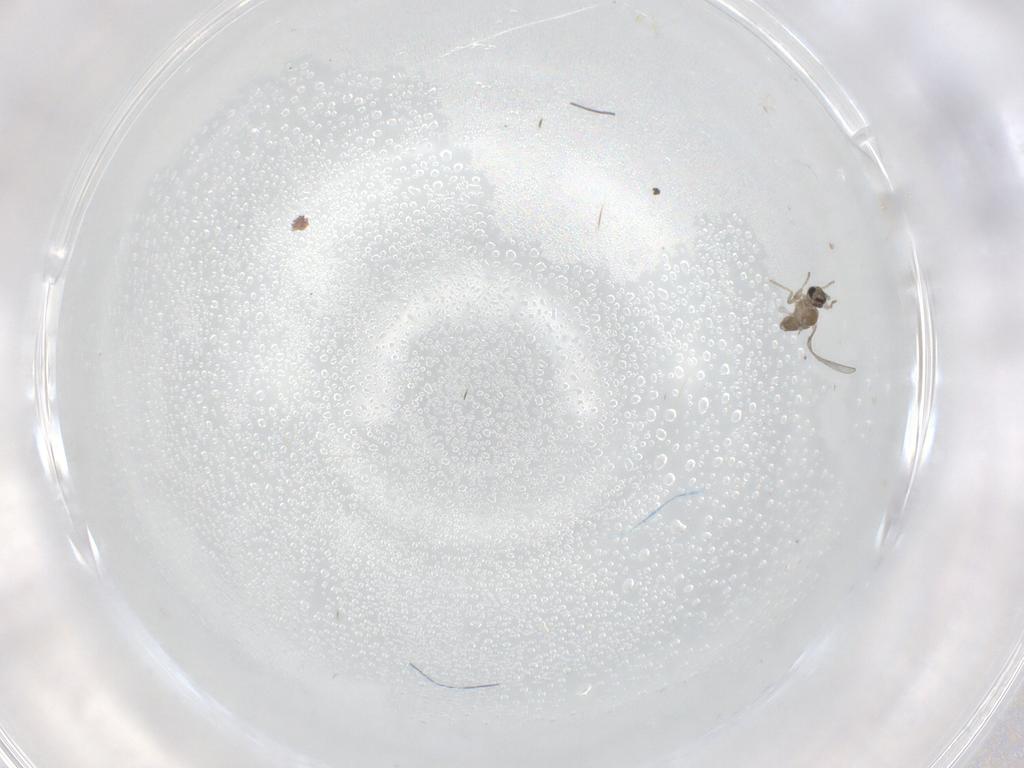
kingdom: Animalia
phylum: Arthropoda
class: Insecta
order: Diptera
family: Cecidomyiidae
